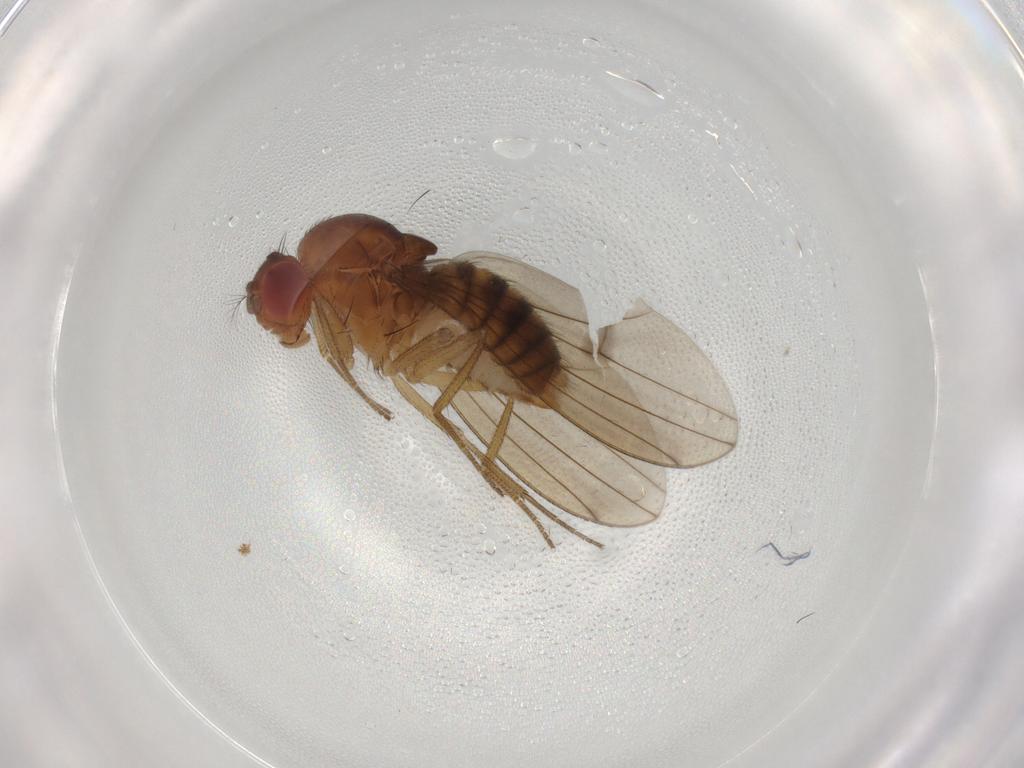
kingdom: Animalia
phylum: Arthropoda
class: Insecta
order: Diptera
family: Drosophilidae
